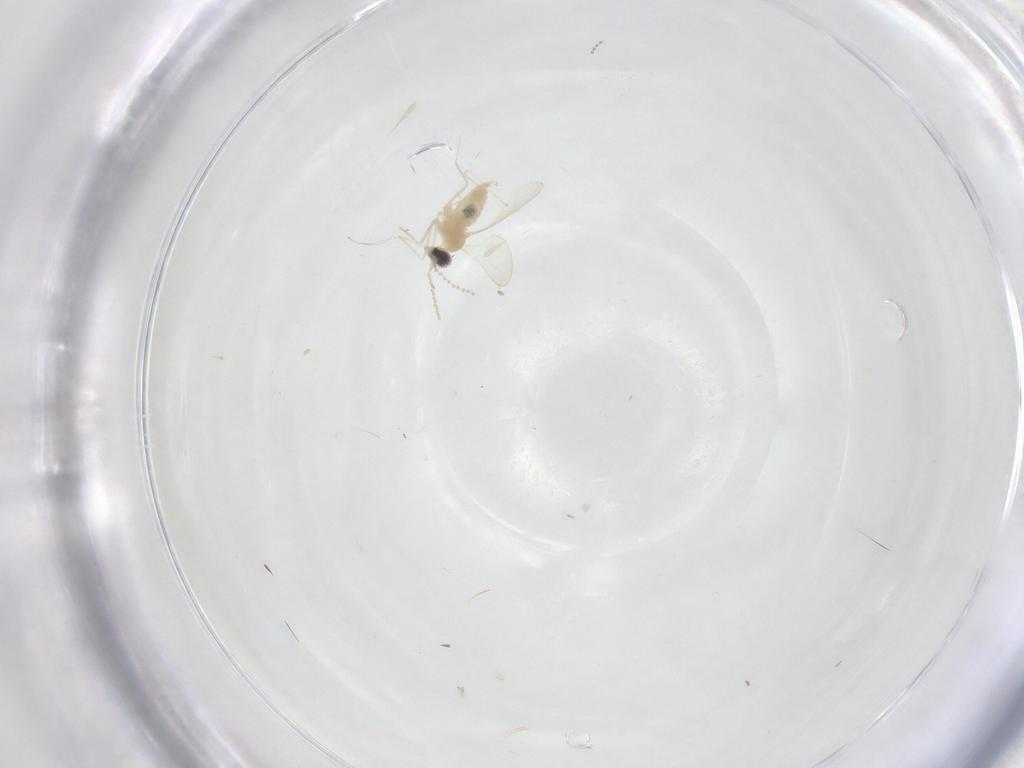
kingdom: Animalia
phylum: Arthropoda
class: Insecta
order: Diptera
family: Cecidomyiidae
